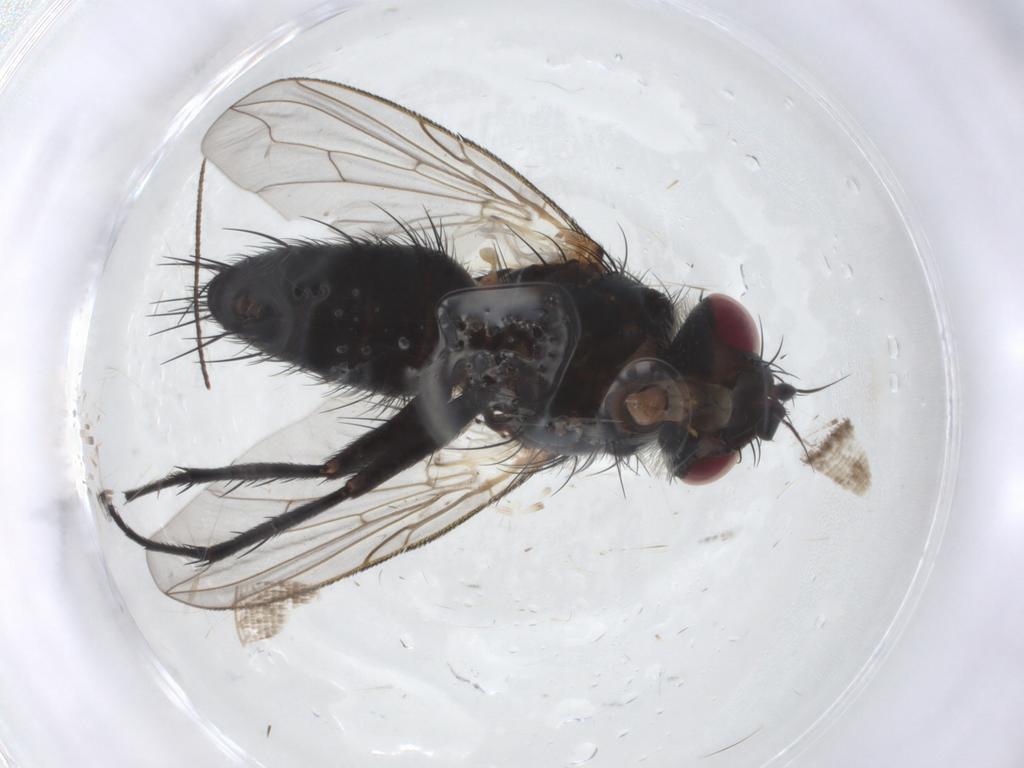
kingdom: Animalia
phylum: Arthropoda
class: Insecta
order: Diptera
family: Tachinidae
